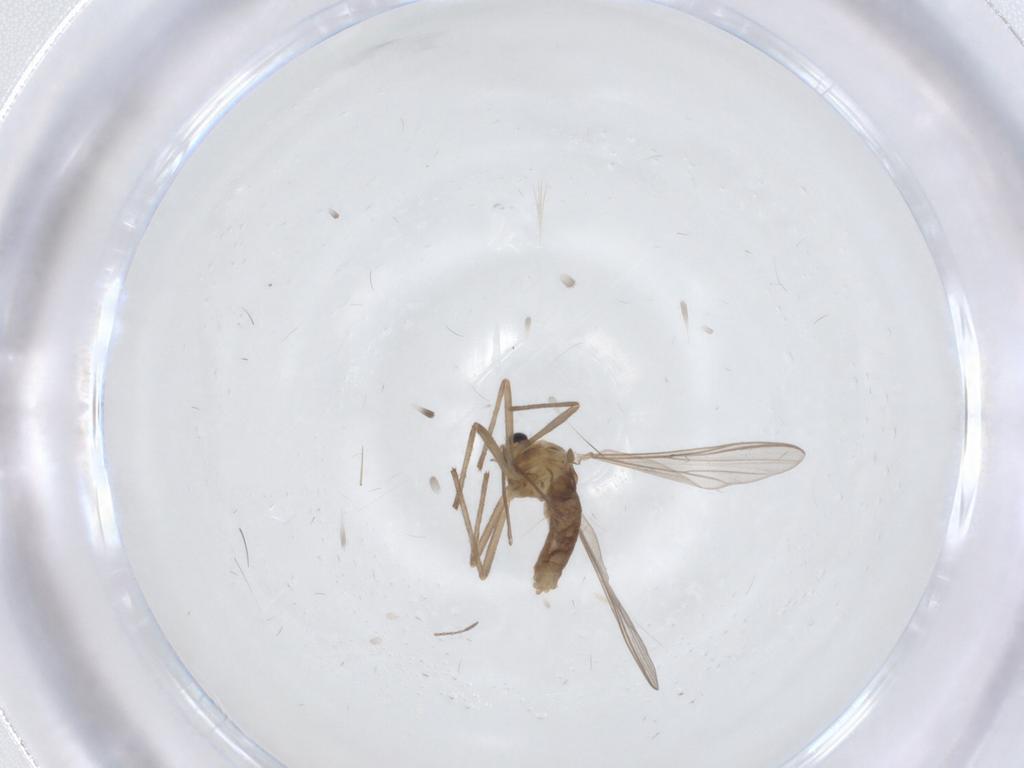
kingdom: Animalia
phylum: Arthropoda
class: Insecta
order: Diptera
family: Chironomidae
